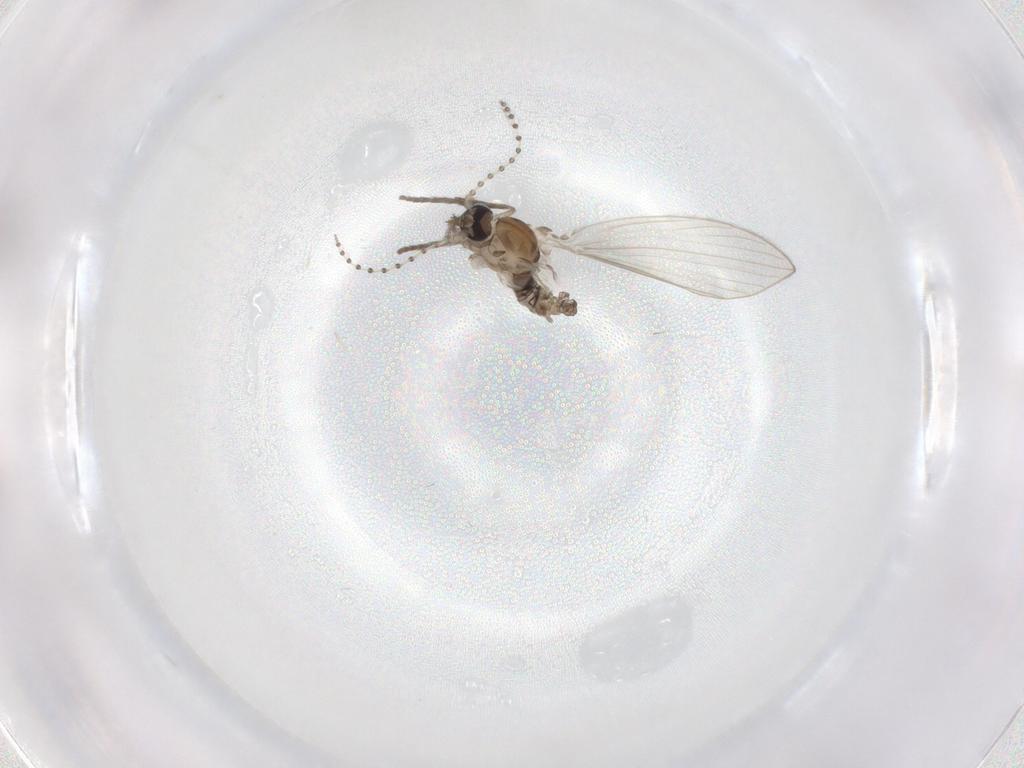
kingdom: Animalia
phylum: Arthropoda
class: Insecta
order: Diptera
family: Psychodidae
